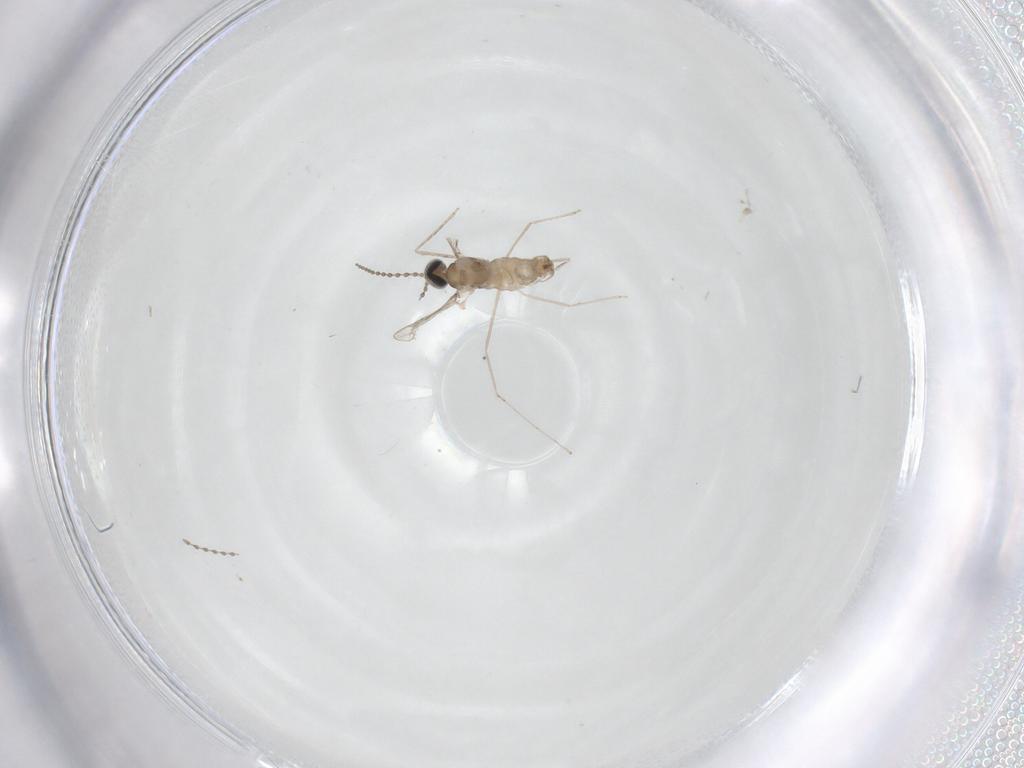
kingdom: Animalia
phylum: Arthropoda
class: Insecta
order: Diptera
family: Cecidomyiidae
